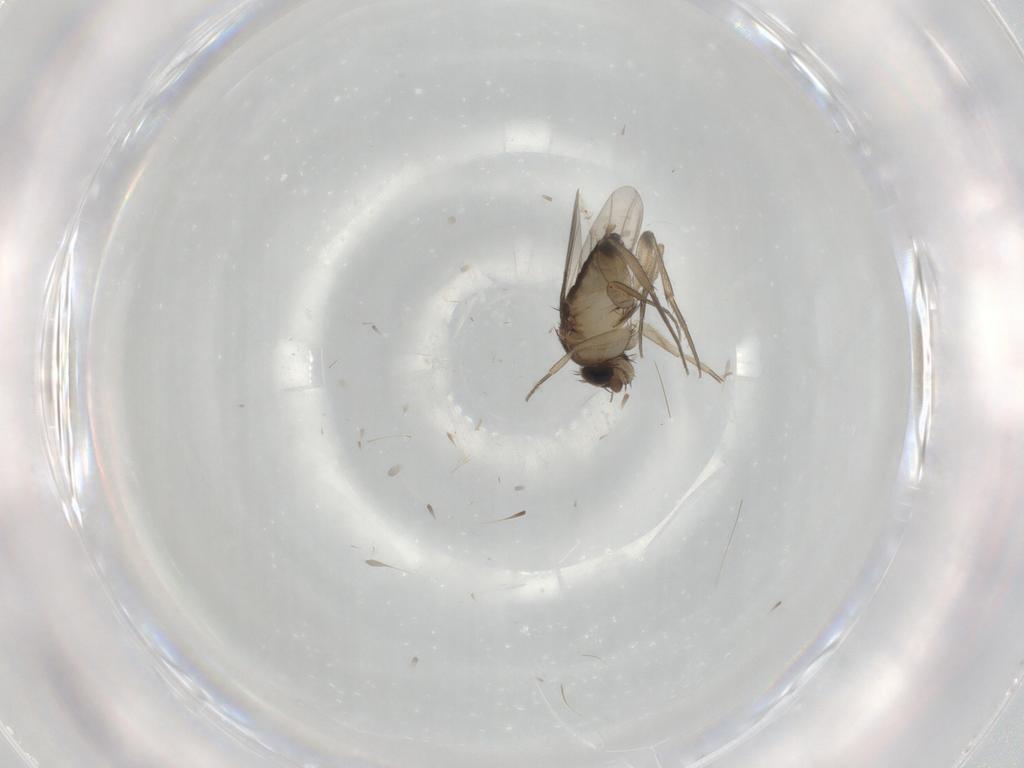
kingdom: Animalia
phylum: Arthropoda
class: Insecta
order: Diptera
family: Phoridae
